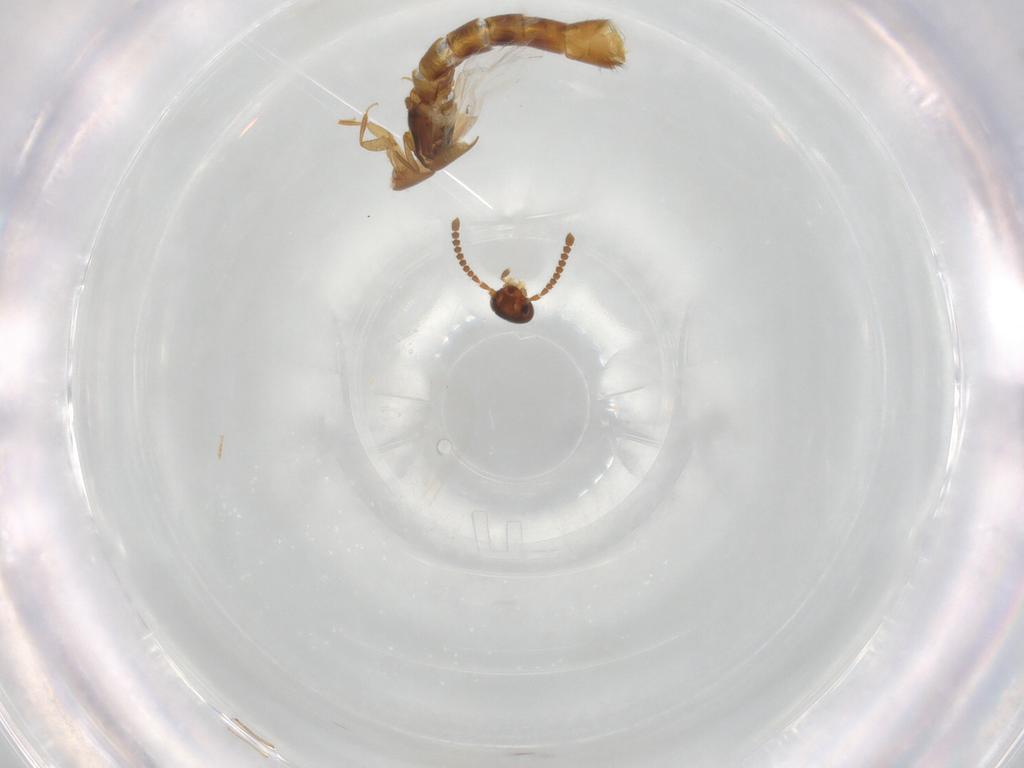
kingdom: Animalia
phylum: Arthropoda
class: Insecta
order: Coleoptera
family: Staphylinidae
